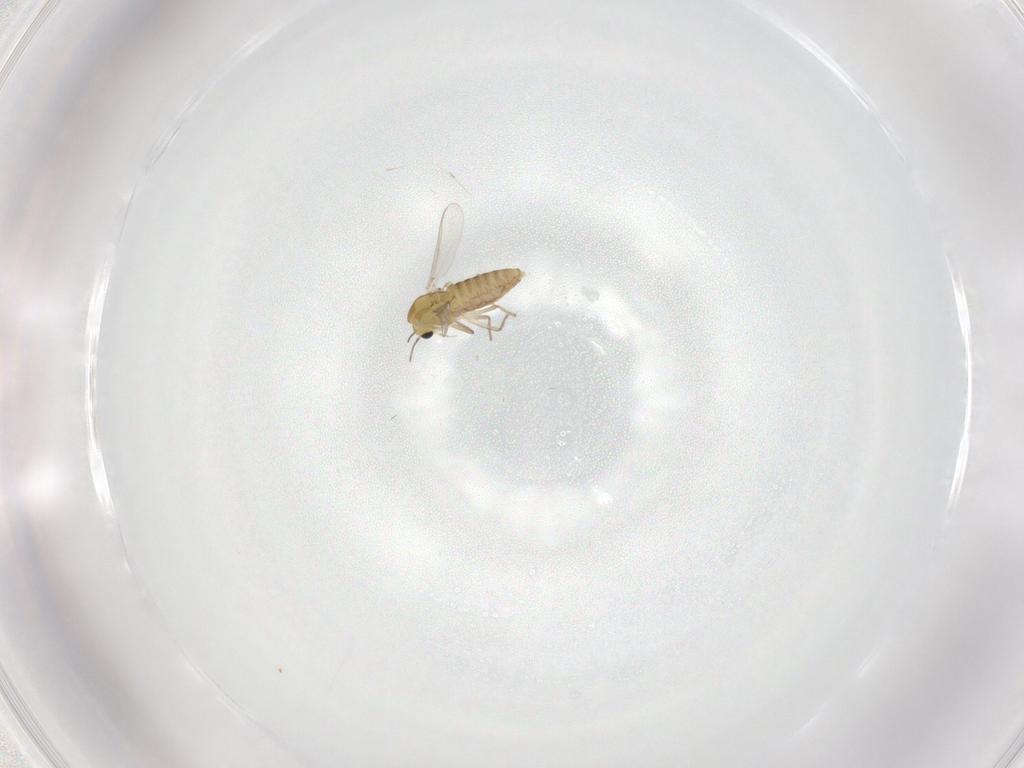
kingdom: Animalia
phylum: Arthropoda
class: Insecta
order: Diptera
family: Chironomidae
